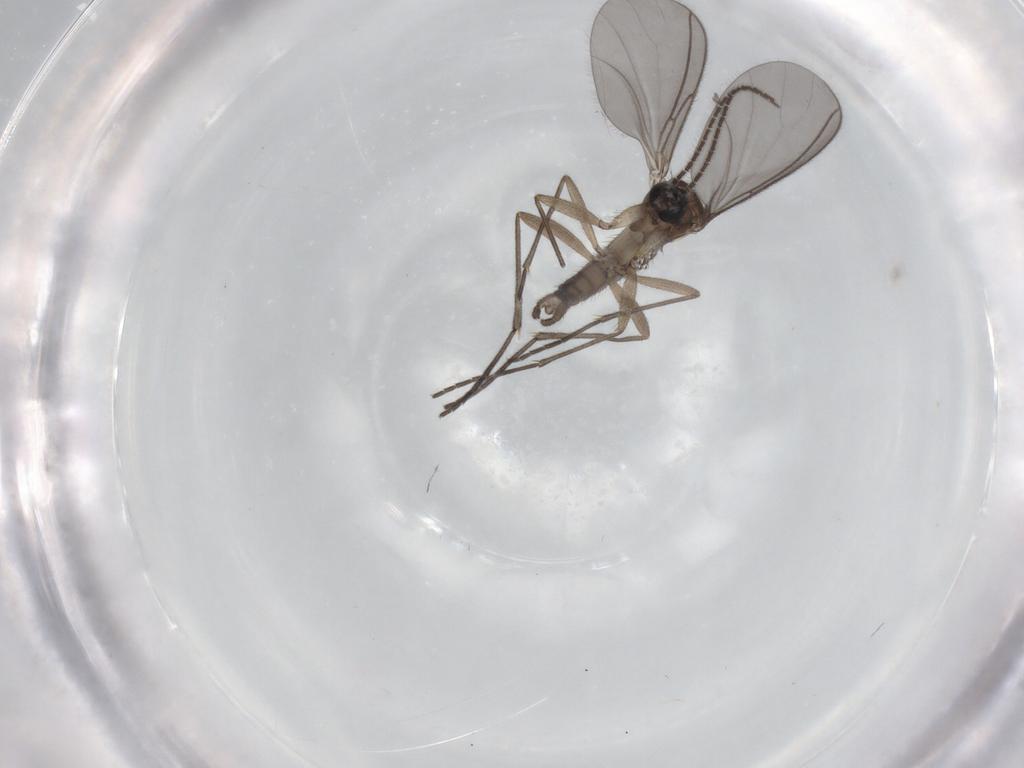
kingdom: Animalia
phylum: Arthropoda
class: Insecta
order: Diptera
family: Sciaridae
